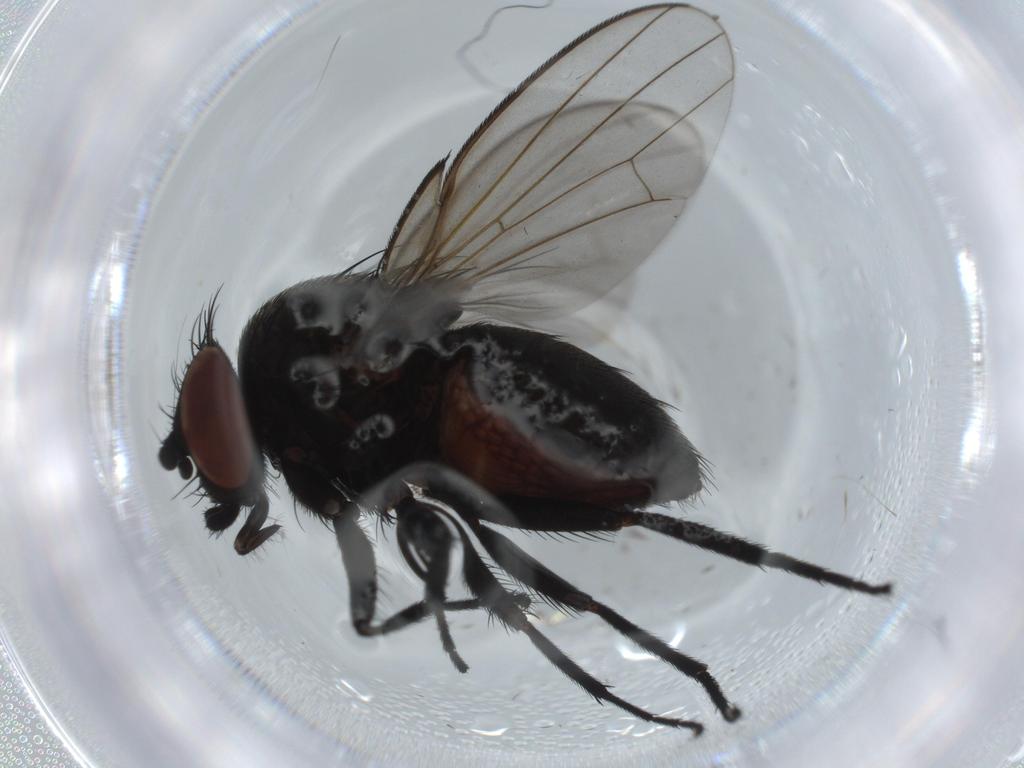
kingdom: Animalia
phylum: Arthropoda
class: Insecta
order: Diptera
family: Milichiidae
